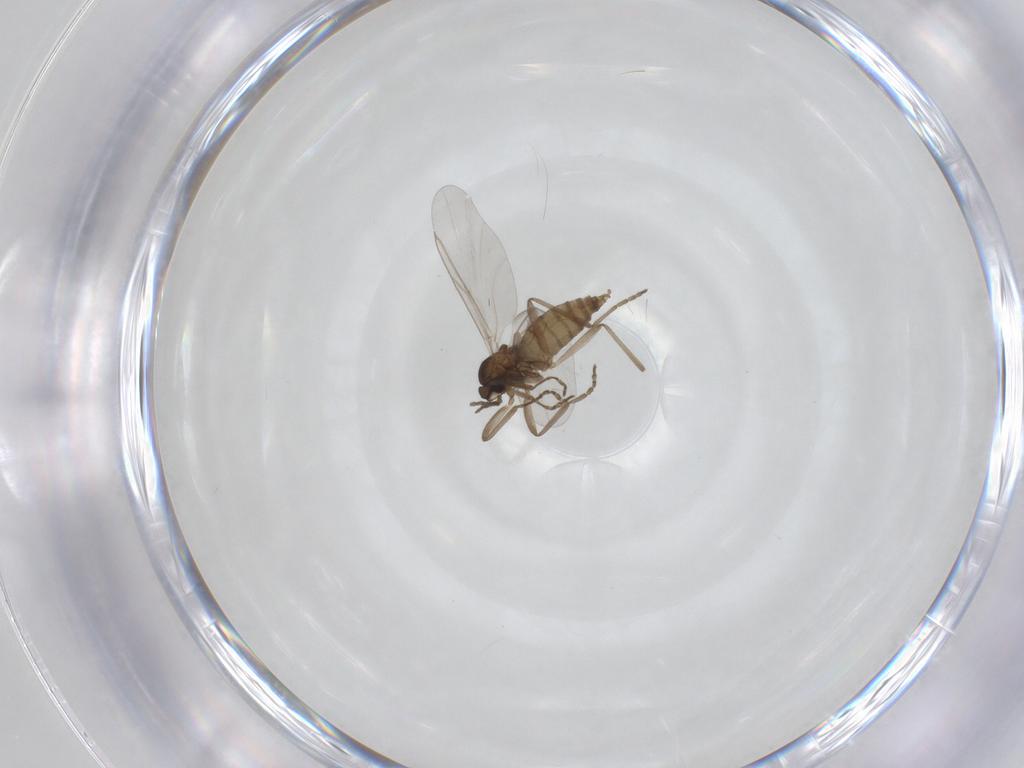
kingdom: Animalia
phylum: Arthropoda
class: Insecta
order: Diptera
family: Cecidomyiidae
